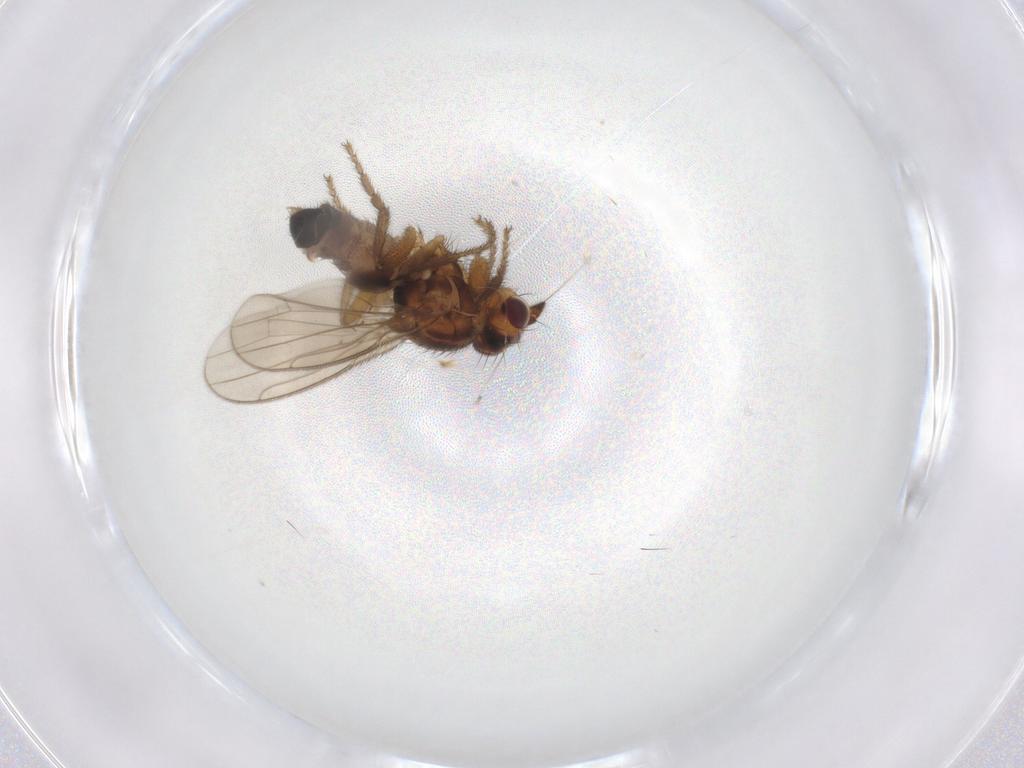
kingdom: Animalia
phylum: Arthropoda
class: Insecta
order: Diptera
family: Sphaeroceridae
